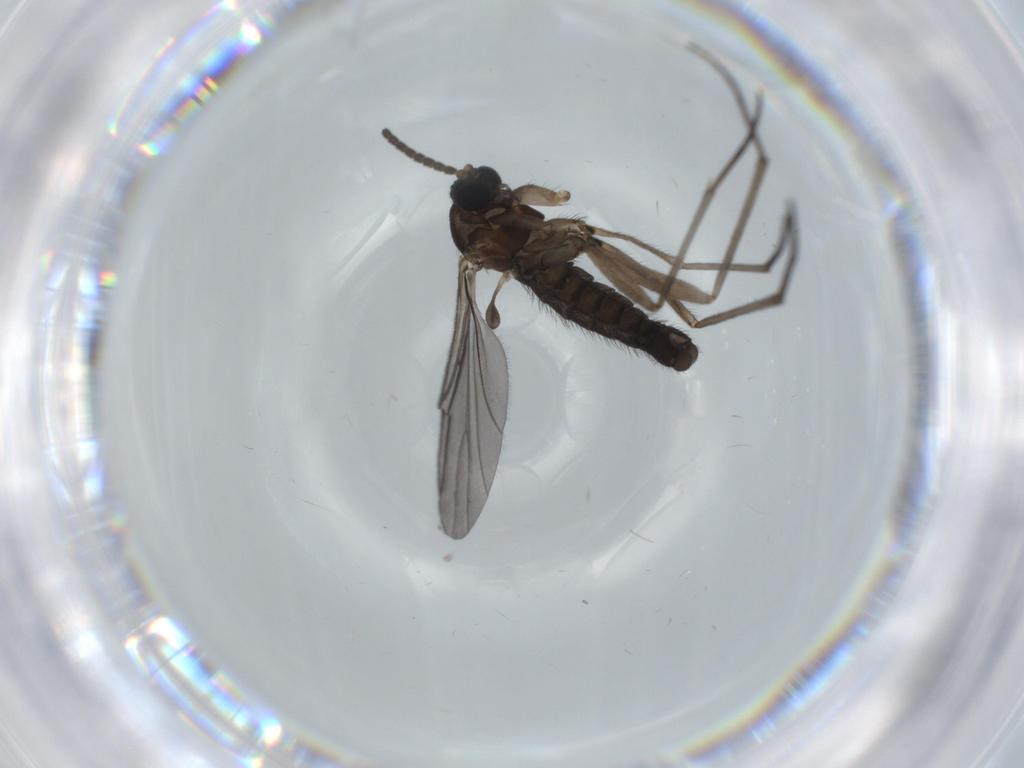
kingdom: Animalia
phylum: Arthropoda
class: Insecta
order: Diptera
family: Sciaridae
